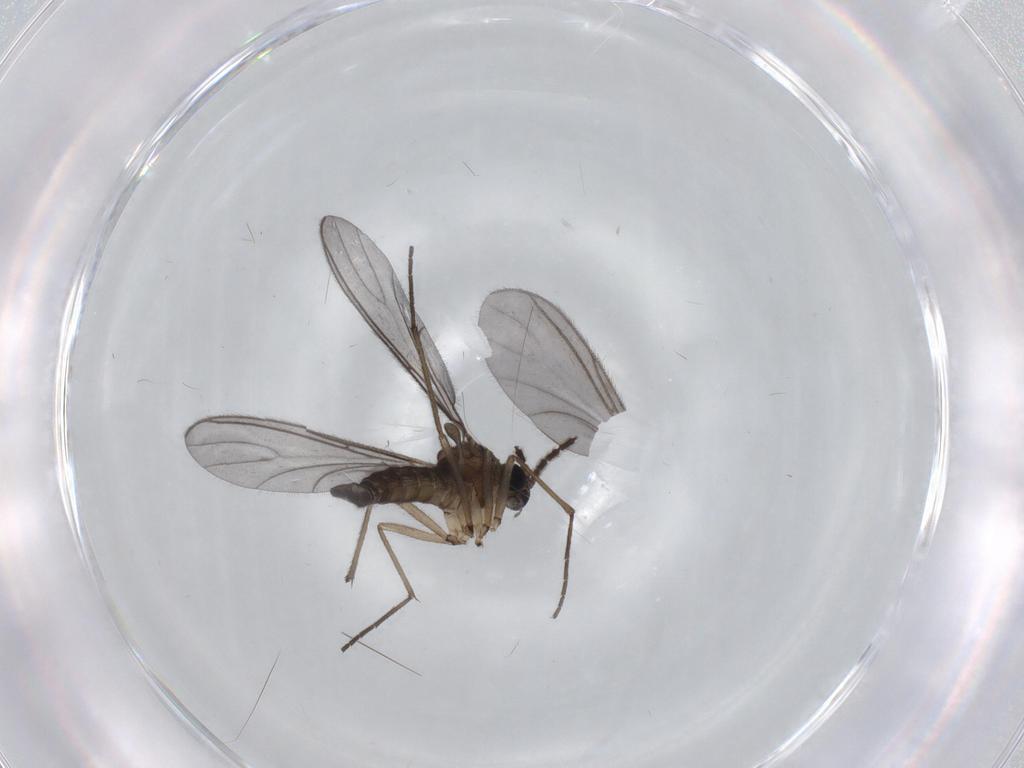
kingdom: Animalia
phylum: Arthropoda
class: Insecta
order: Diptera
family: Sciaridae
